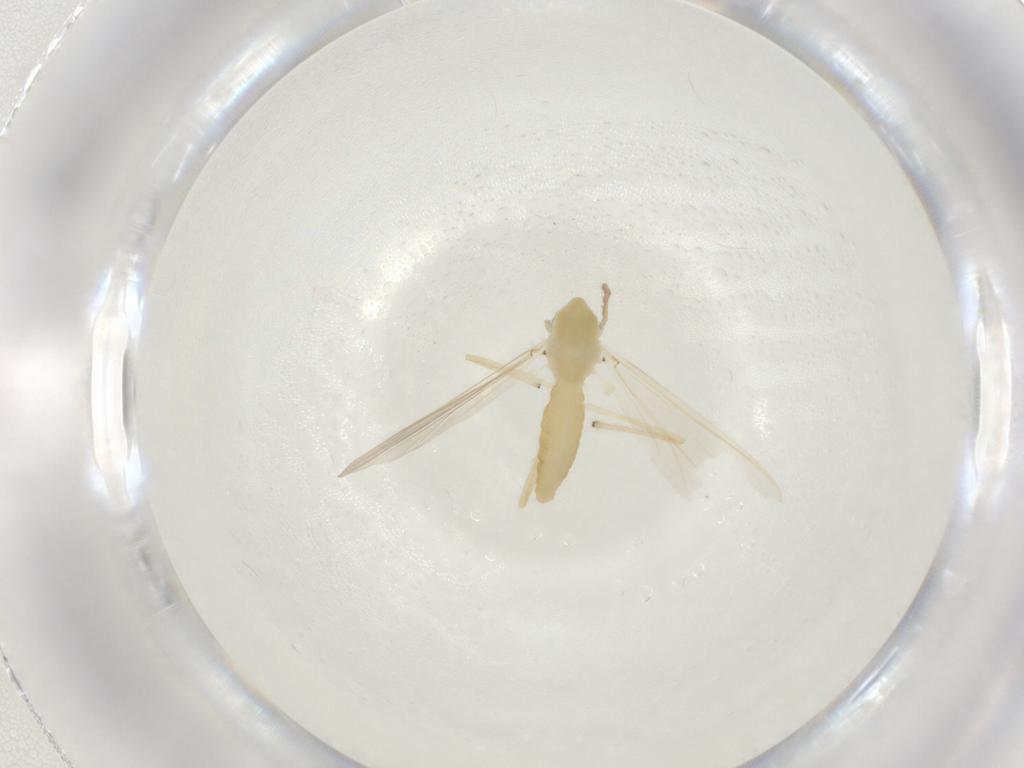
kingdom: Animalia
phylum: Arthropoda
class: Insecta
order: Diptera
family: Chironomidae
